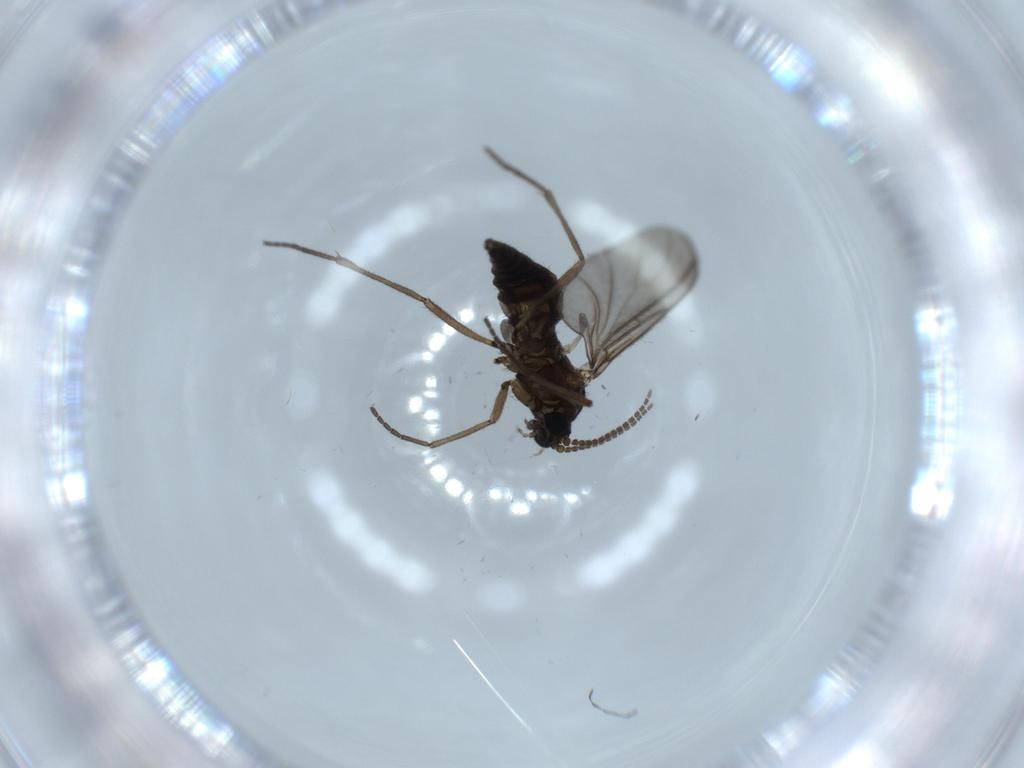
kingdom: Animalia
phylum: Arthropoda
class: Insecta
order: Diptera
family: Sciaridae
